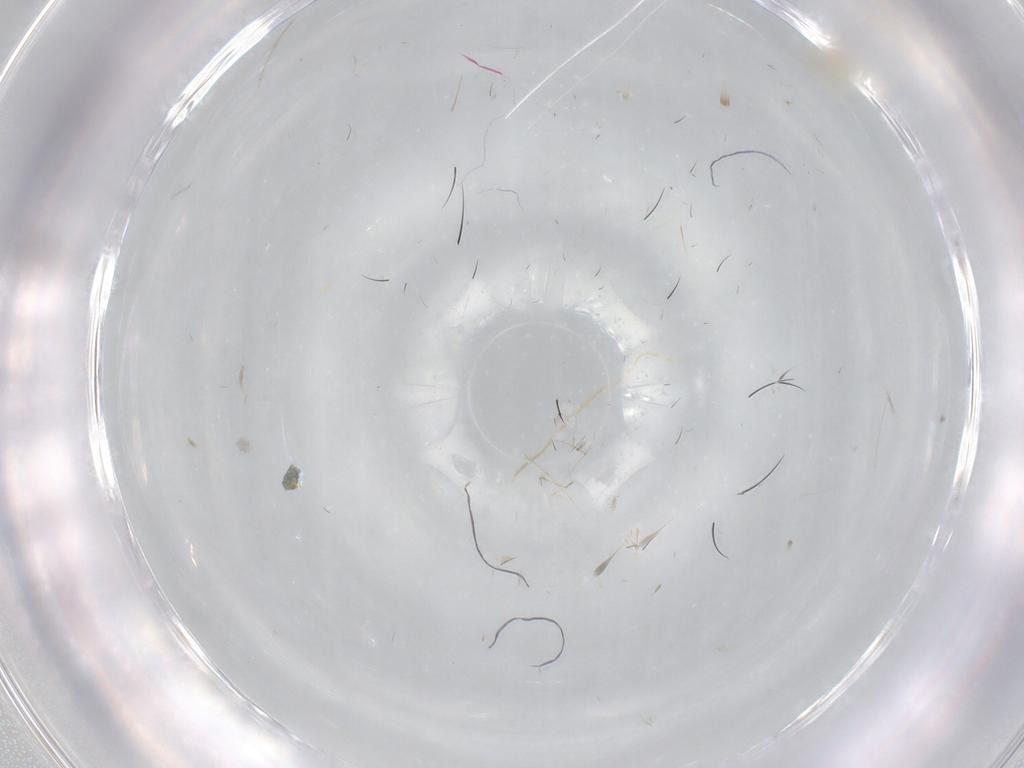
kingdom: Animalia
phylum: Arthropoda
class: Insecta
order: Diptera
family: Dolichopodidae
